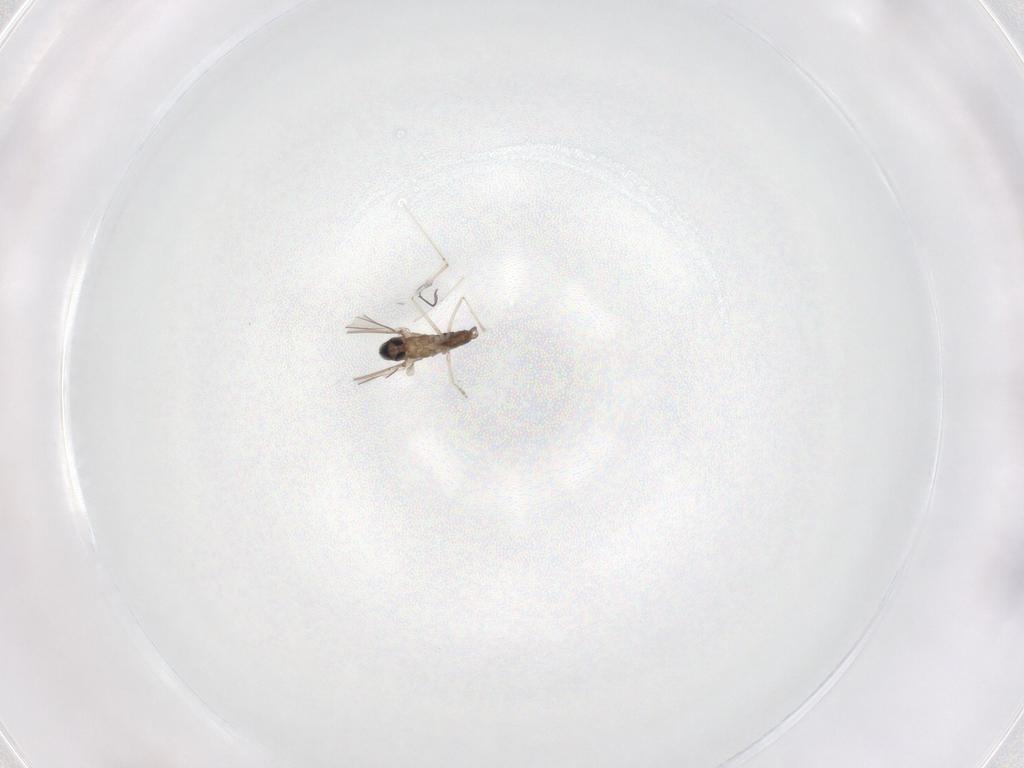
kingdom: Animalia
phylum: Arthropoda
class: Insecta
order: Diptera
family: Cecidomyiidae
